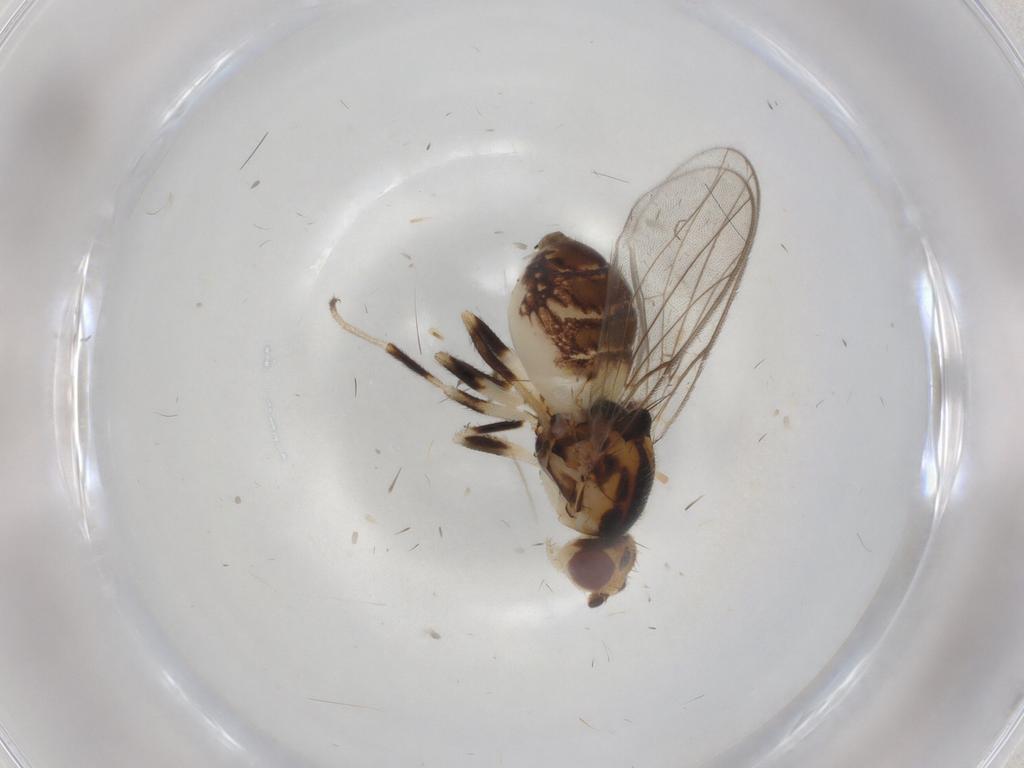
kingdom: Animalia
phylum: Arthropoda
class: Insecta
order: Diptera
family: Chloropidae
